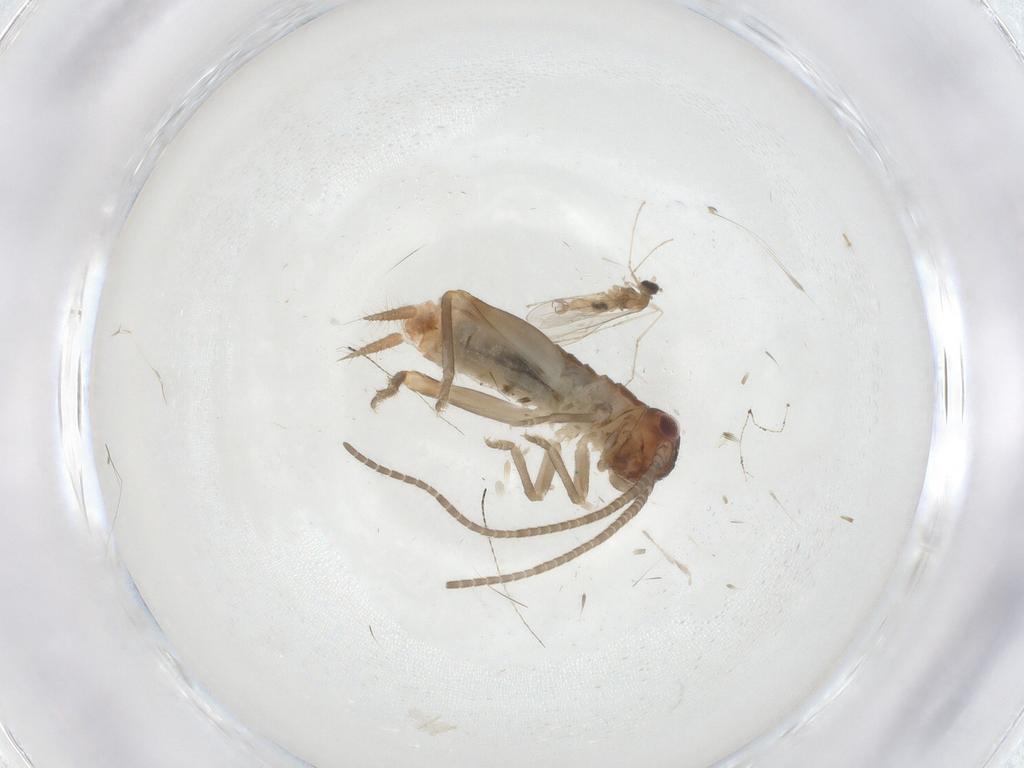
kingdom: Animalia
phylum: Arthropoda
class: Insecta
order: Diptera
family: Cecidomyiidae
